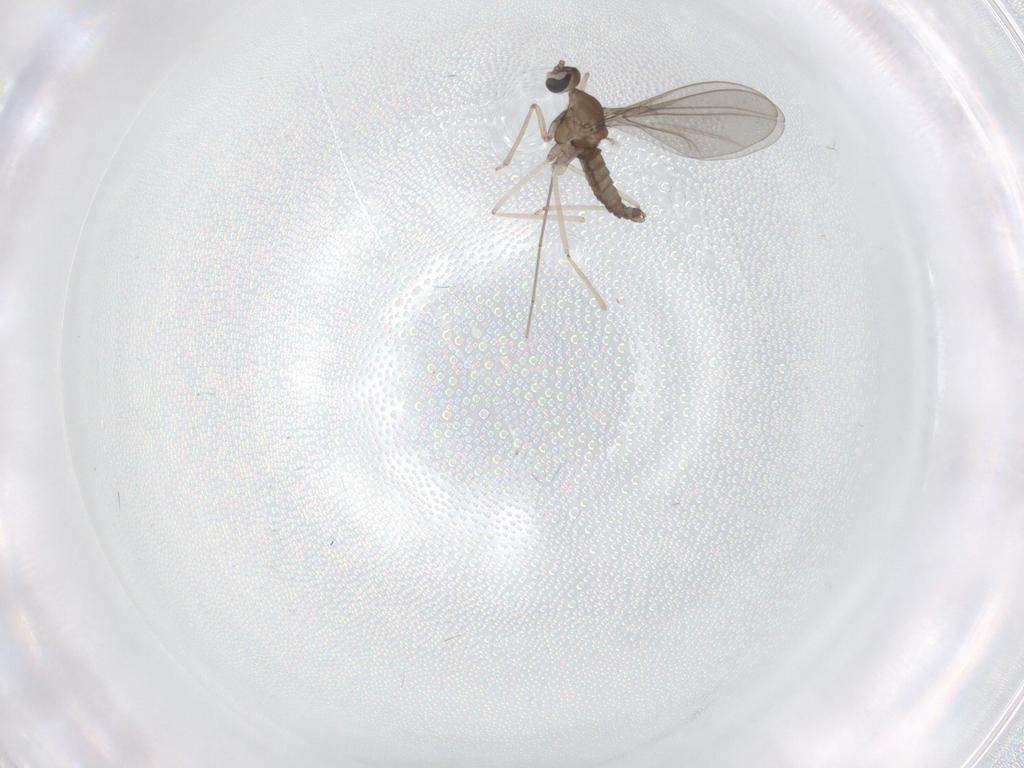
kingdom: Animalia
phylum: Arthropoda
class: Insecta
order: Diptera
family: Cecidomyiidae
